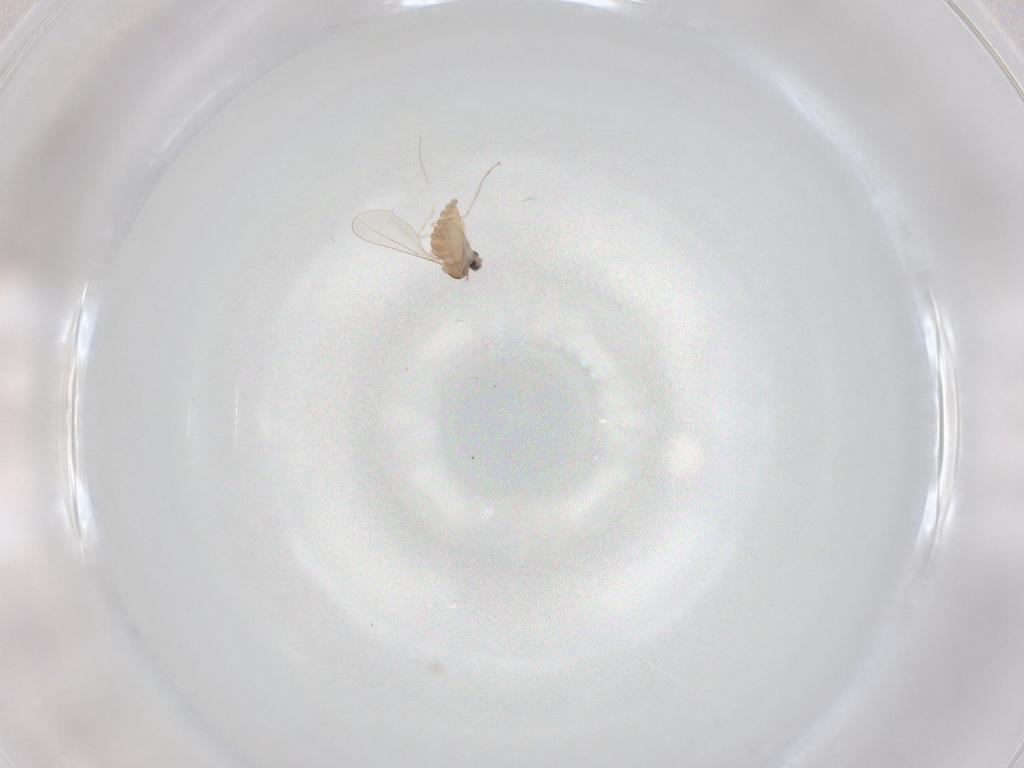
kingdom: Animalia
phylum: Arthropoda
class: Insecta
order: Diptera
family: Cecidomyiidae
